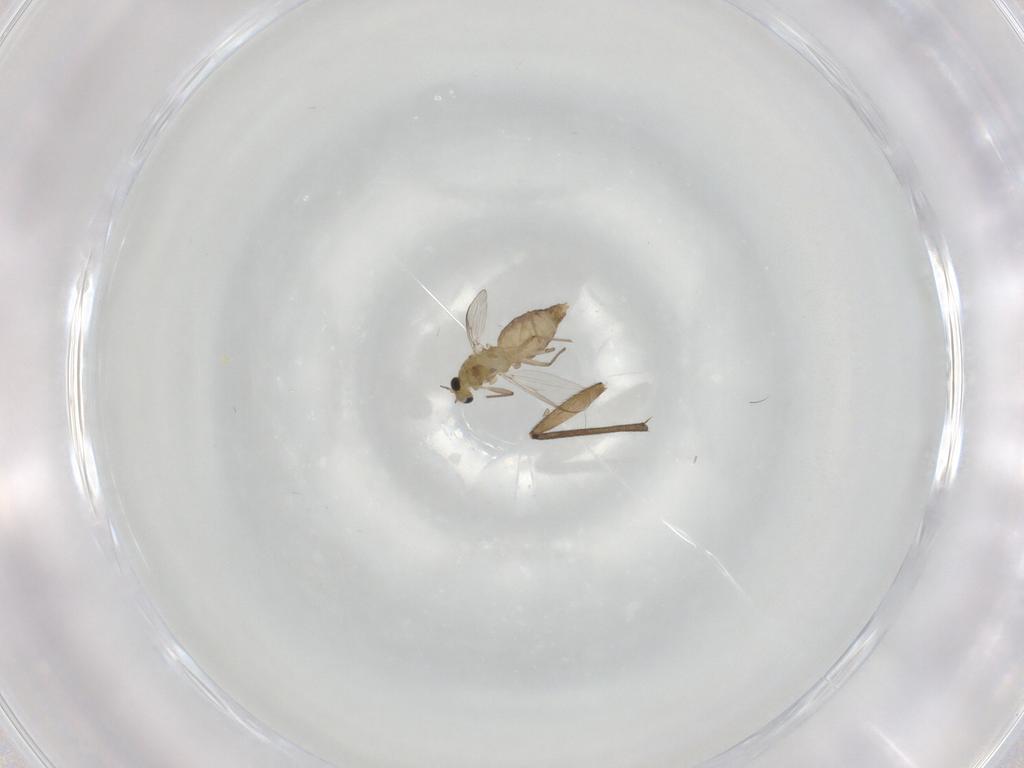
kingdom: Animalia
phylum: Arthropoda
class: Insecta
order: Diptera
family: Chironomidae
